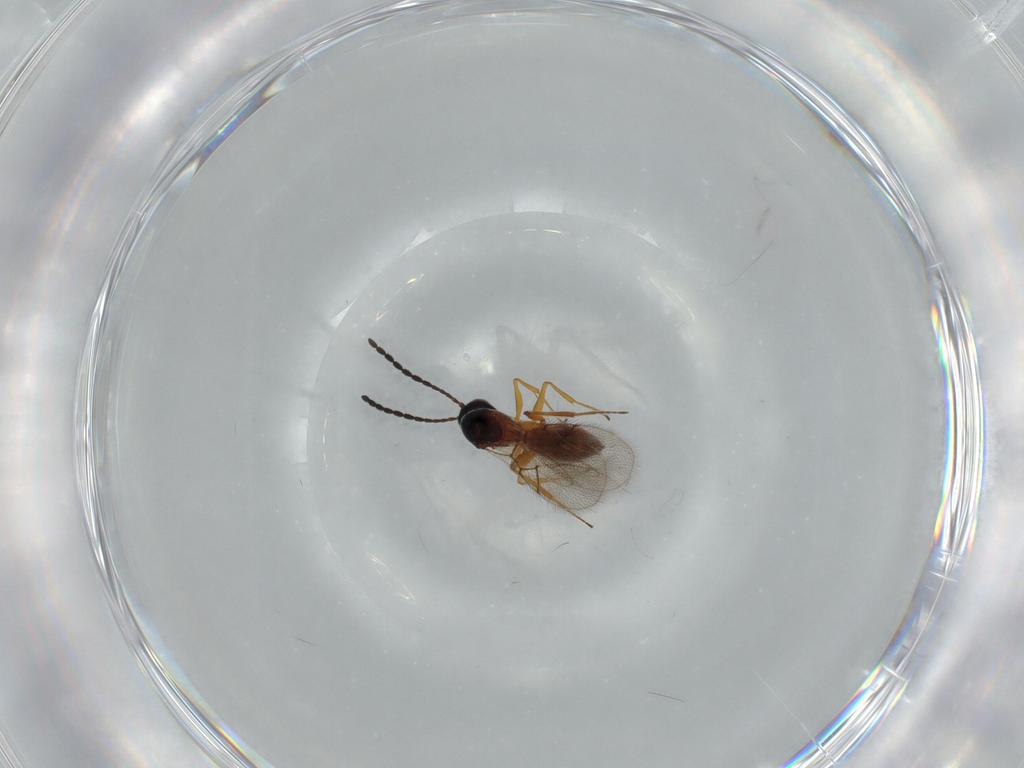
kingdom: Animalia
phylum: Arthropoda
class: Insecta
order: Hymenoptera
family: Figitidae
